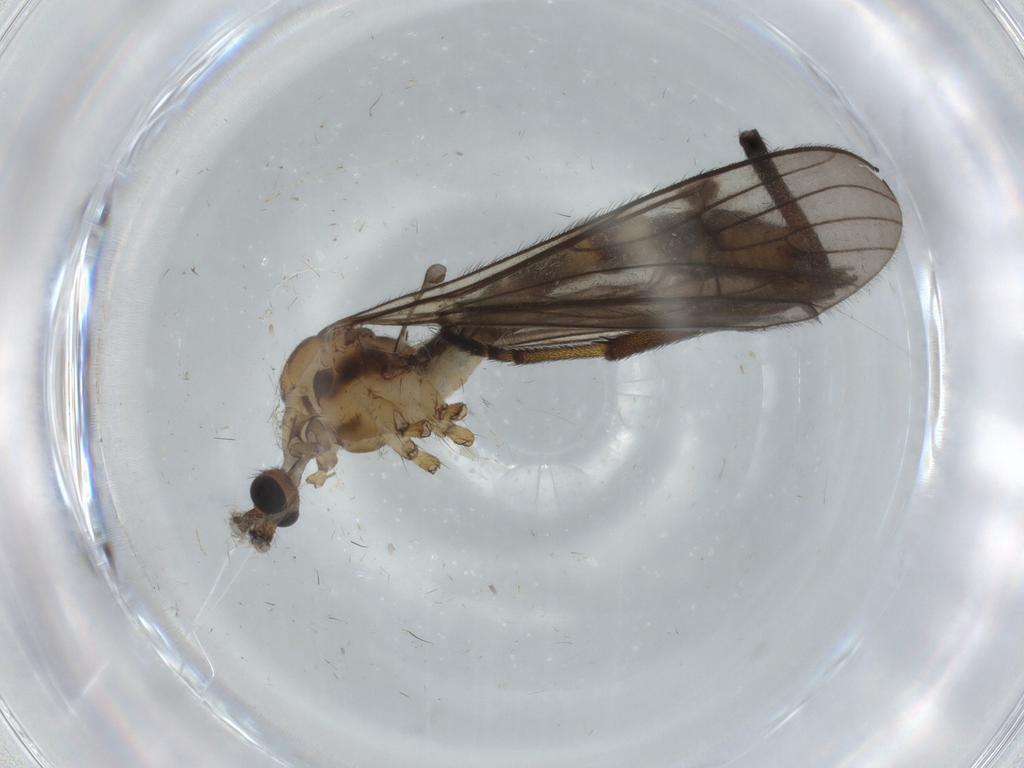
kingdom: Animalia
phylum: Arthropoda
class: Insecta
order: Diptera
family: Limoniidae
